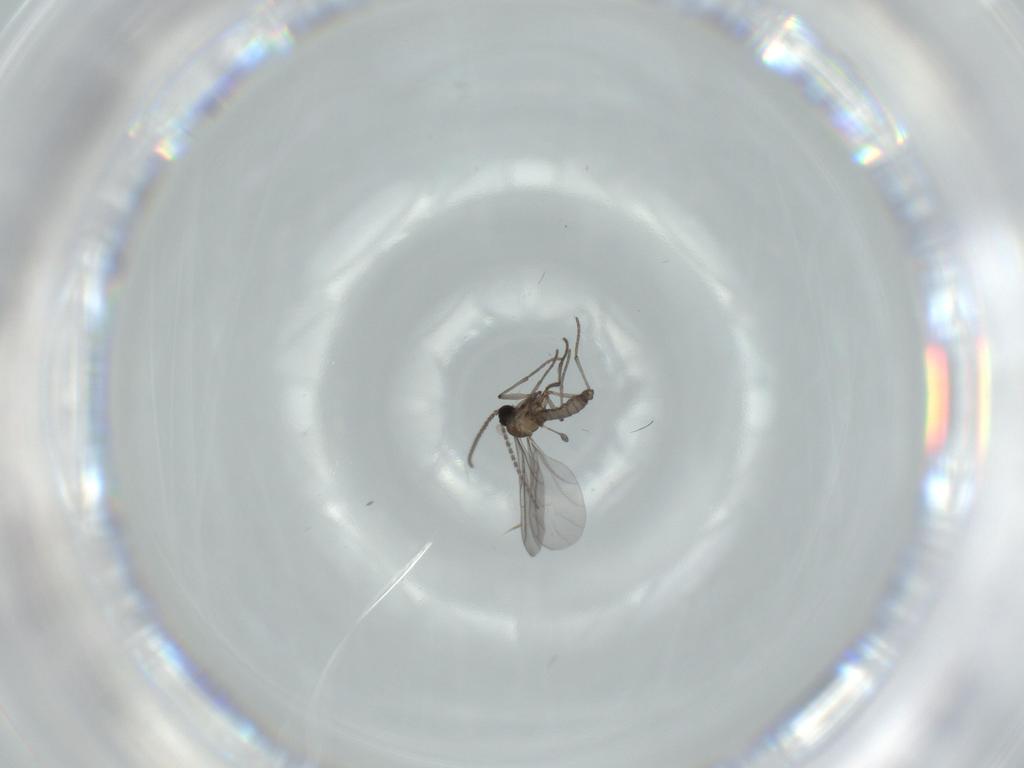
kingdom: Animalia
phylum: Arthropoda
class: Insecta
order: Diptera
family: Sciaridae
